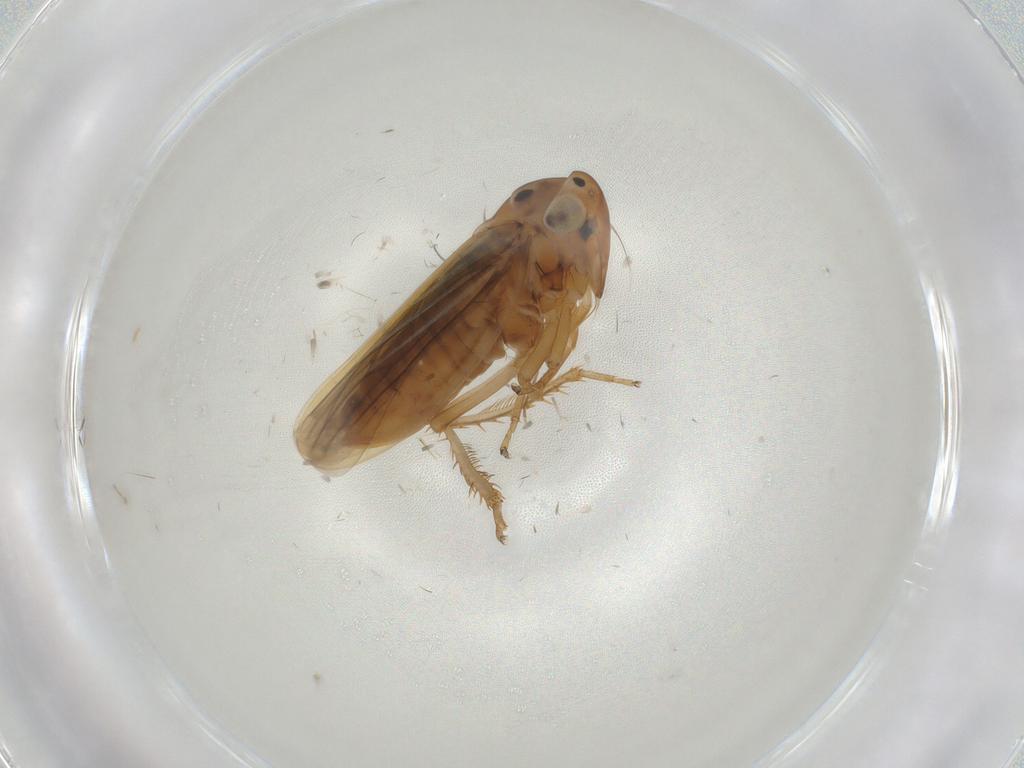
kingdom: Animalia
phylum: Arthropoda
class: Insecta
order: Hemiptera
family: Cicadellidae
